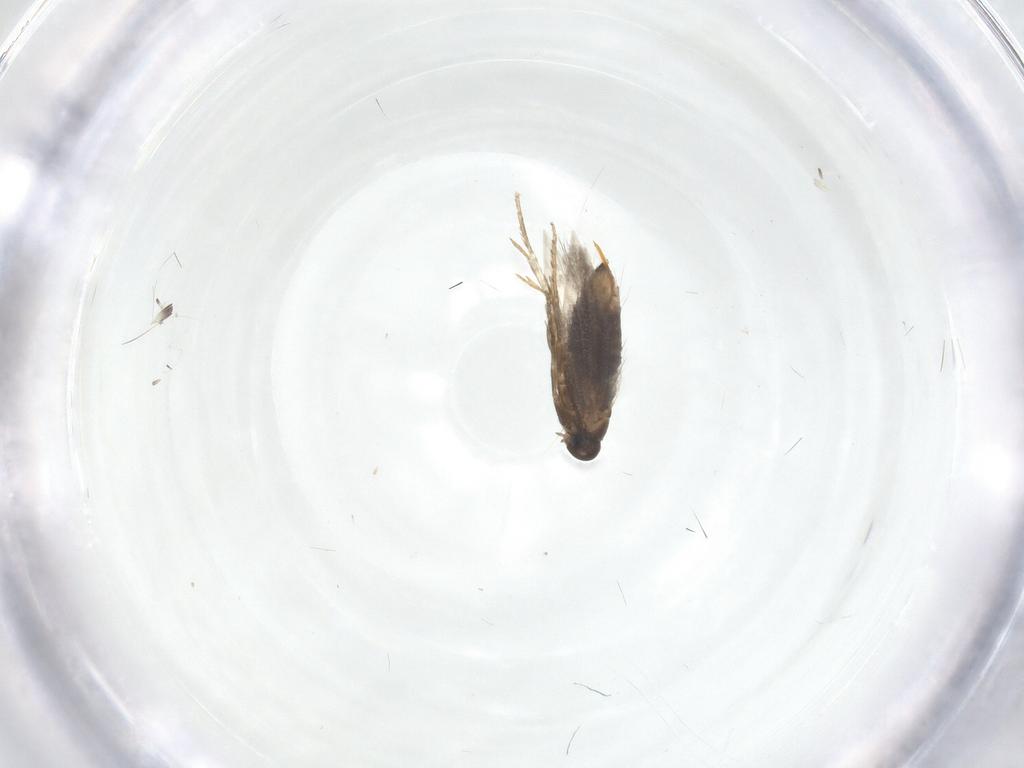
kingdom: Animalia
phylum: Arthropoda
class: Insecta
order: Lepidoptera
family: Heliozelidae
